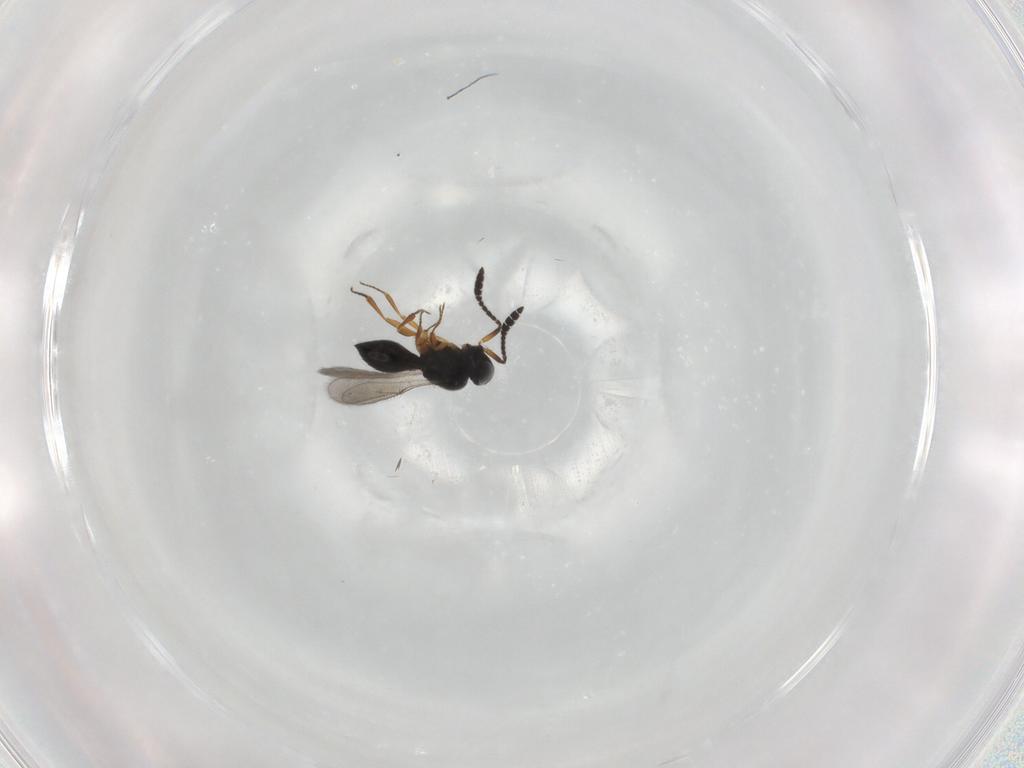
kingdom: Animalia
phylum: Arthropoda
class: Insecta
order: Hymenoptera
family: Scelionidae
